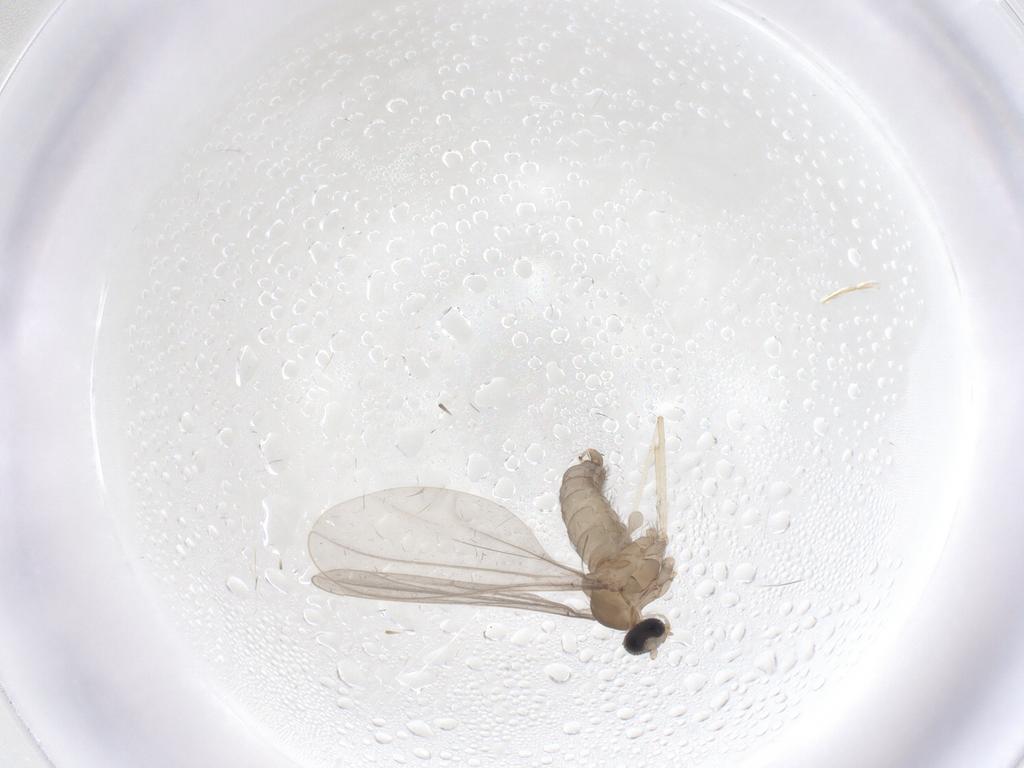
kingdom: Animalia
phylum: Arthropoda
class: Insecta
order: Diptera
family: Cecidomyiidae
